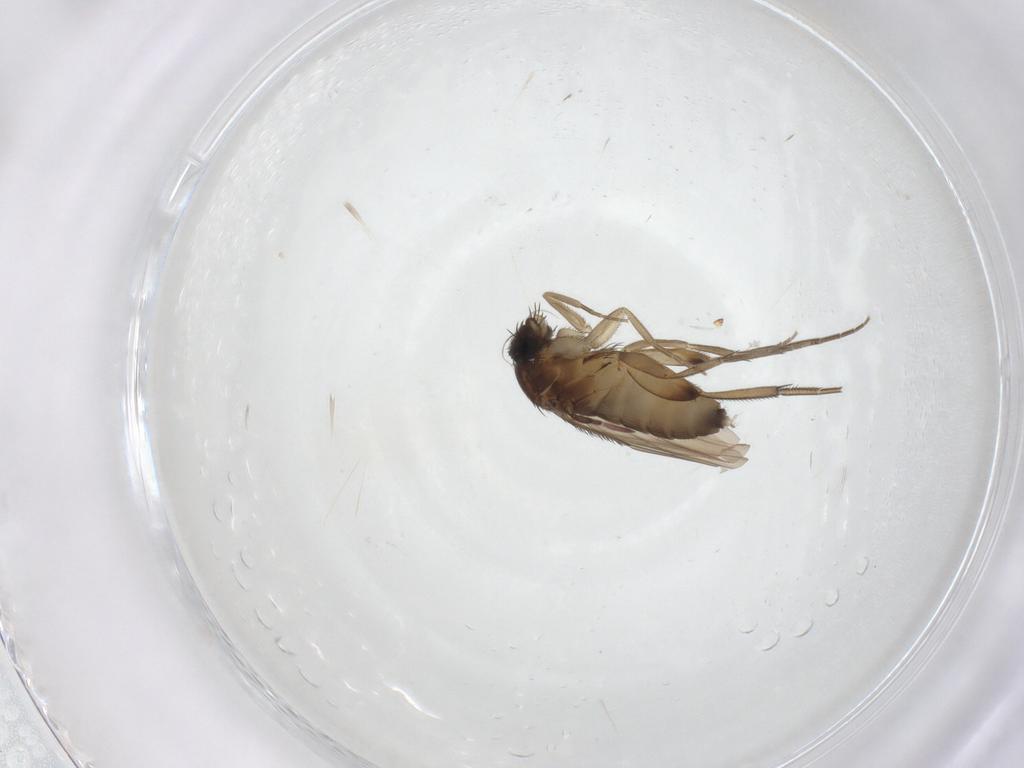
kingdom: Animalia
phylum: Arthropoda
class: Insecta
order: Diptera
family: Phoridae
